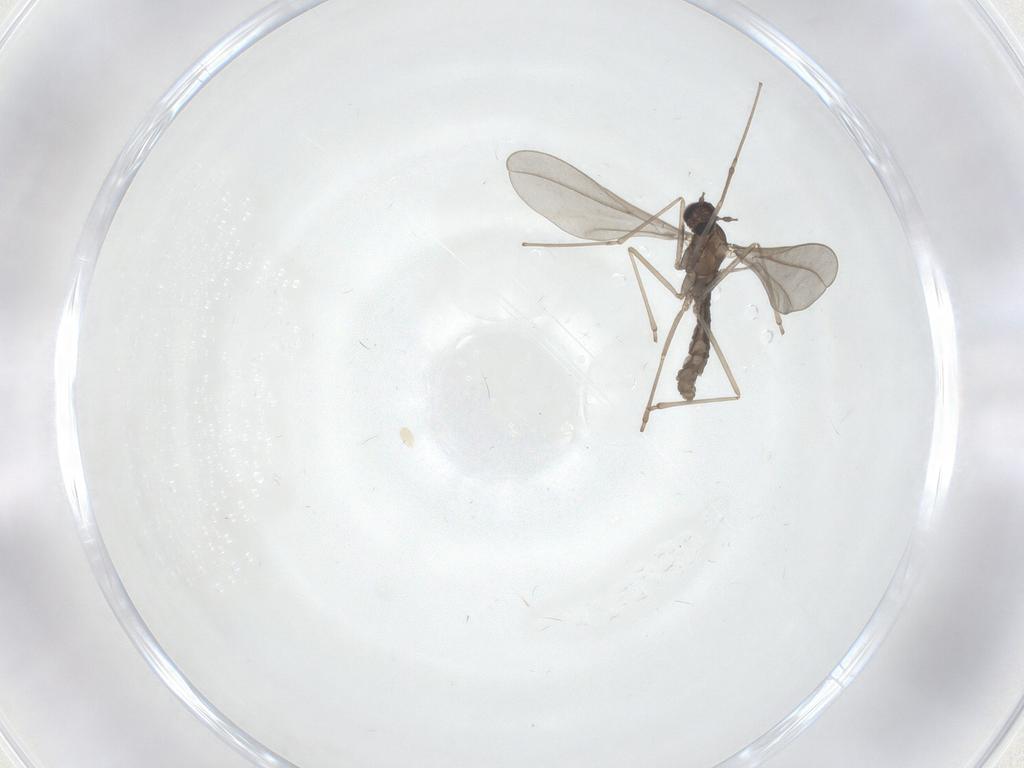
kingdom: Animalia
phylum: Arthropoda
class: Insecta
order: Diptera
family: Cecidomyiidae
